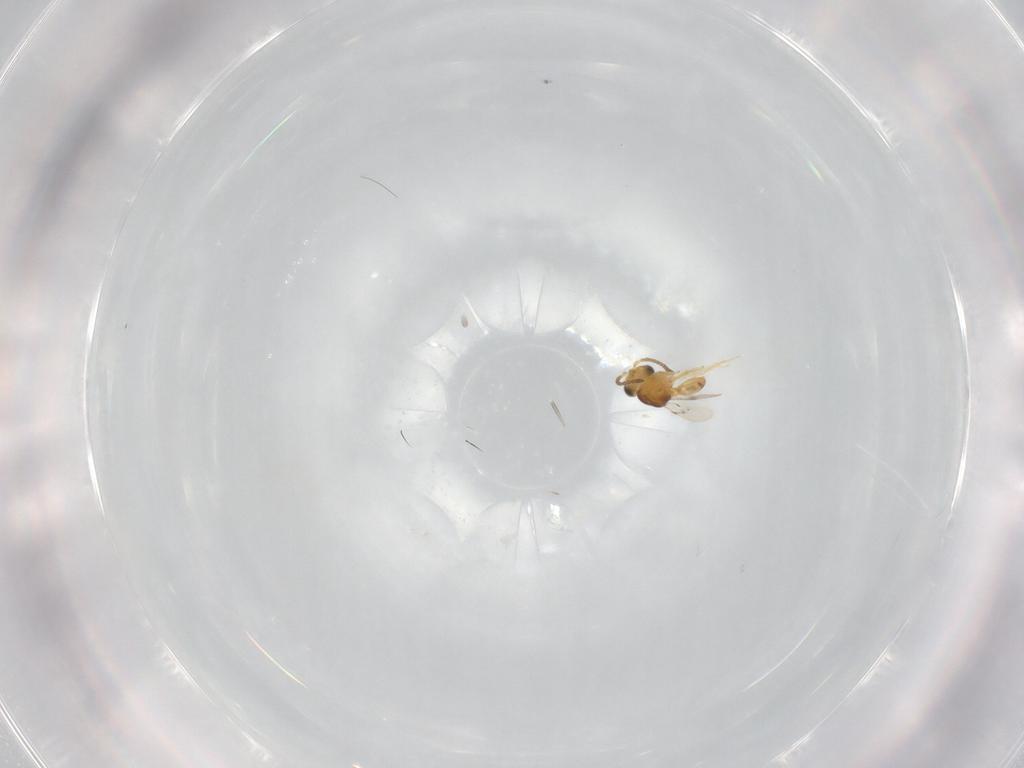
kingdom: Animalia
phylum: Arthropoda
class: Insecta
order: Hymenoptera
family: Scelionidae
